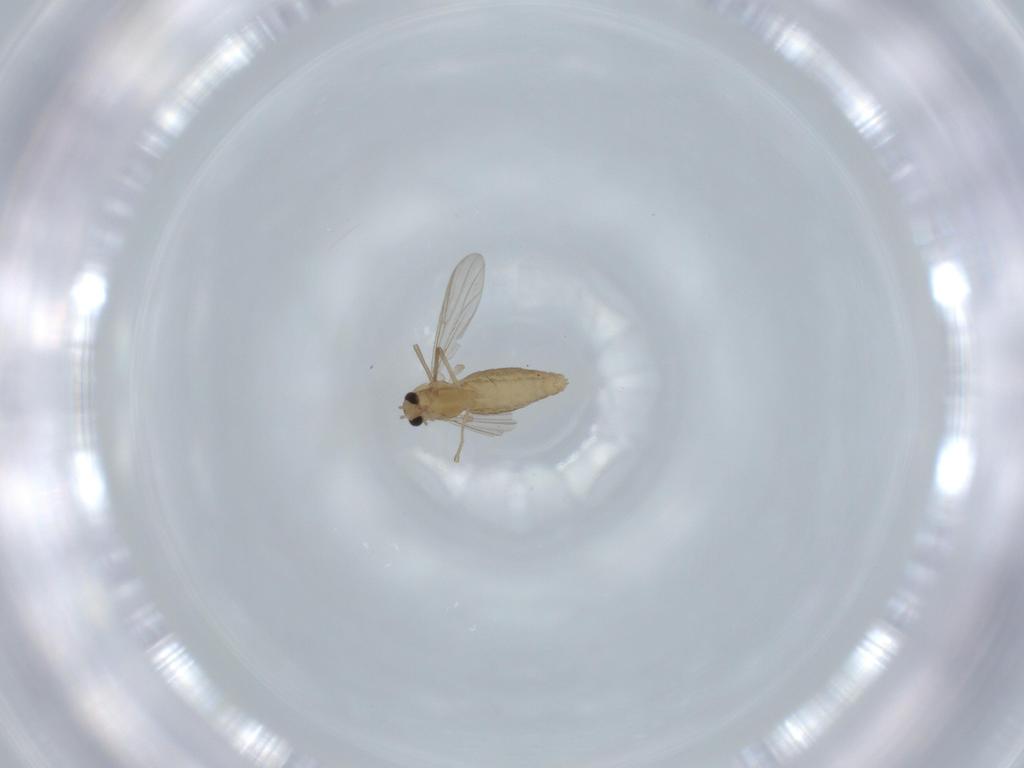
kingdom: Animalia
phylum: Arthropoda
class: Insecta
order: Diptera
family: Chironomidae
